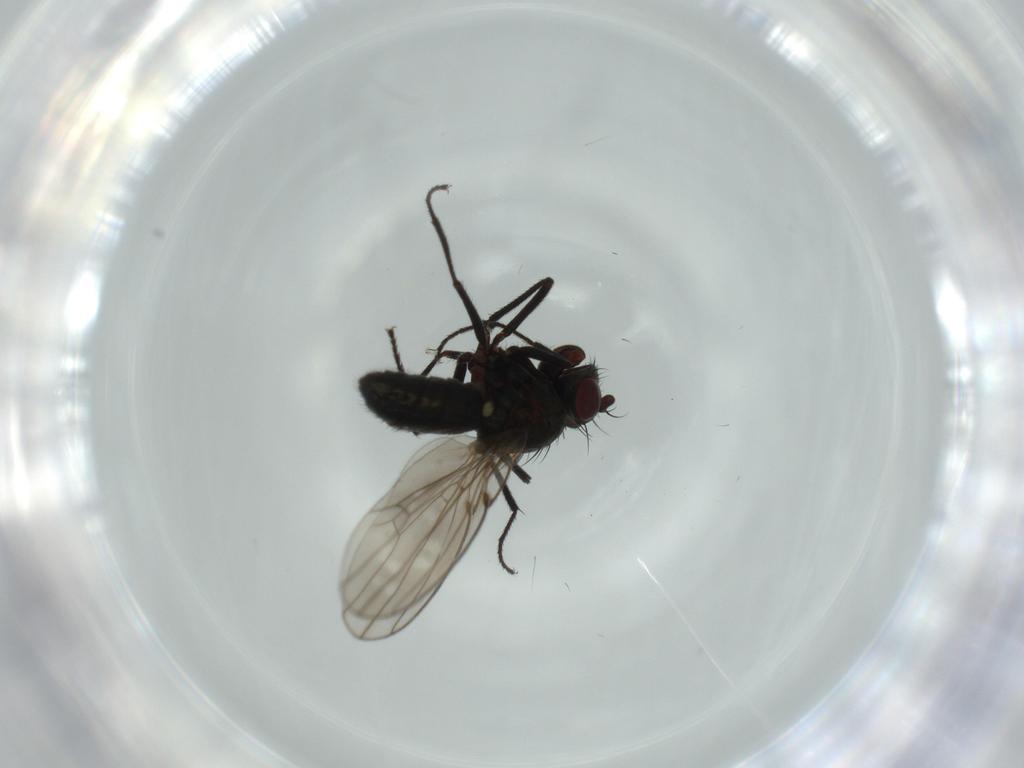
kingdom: Animalia
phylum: Arthropoda
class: Insecta
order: Diptera
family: Ephydridae
